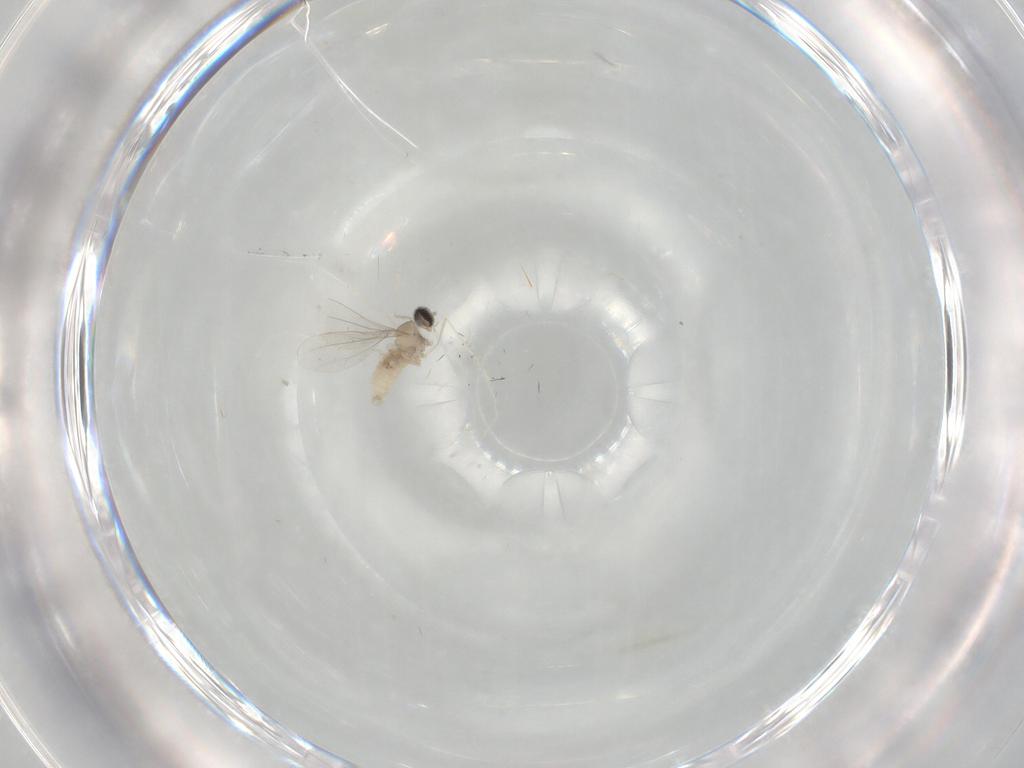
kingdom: Animalia
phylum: Arthropoda
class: Insecta
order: Diptera
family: Cecidomyiidae
